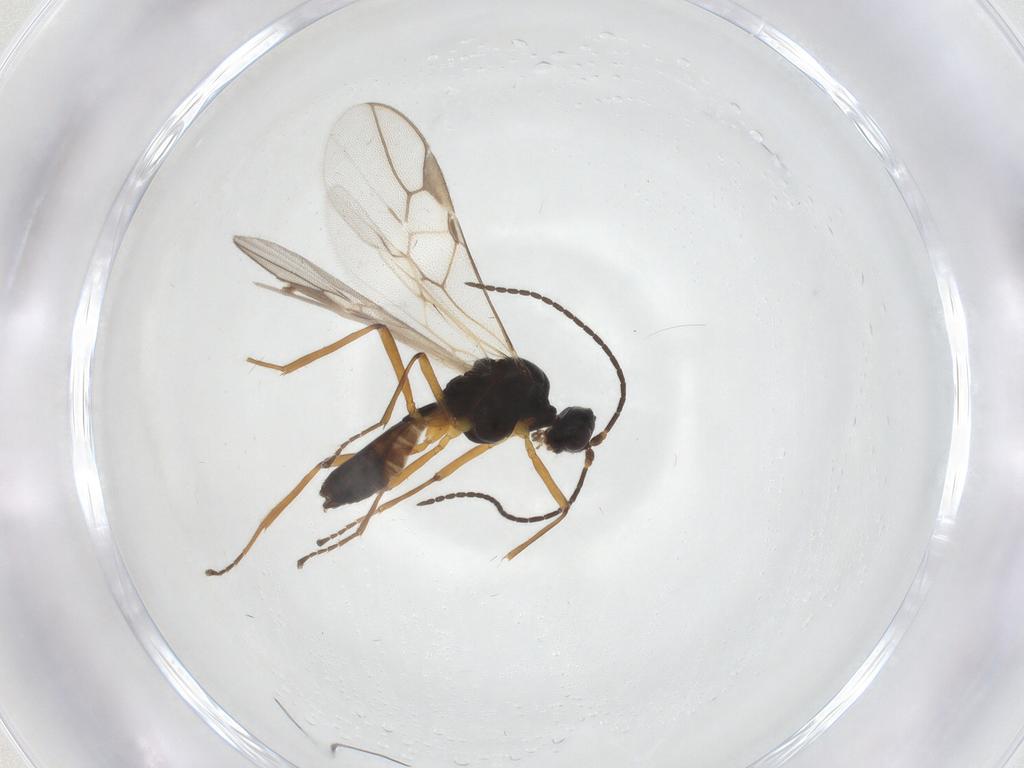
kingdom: Animalia
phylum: Arthropoda
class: Insecta
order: Hymenoptera
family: Braconidae
